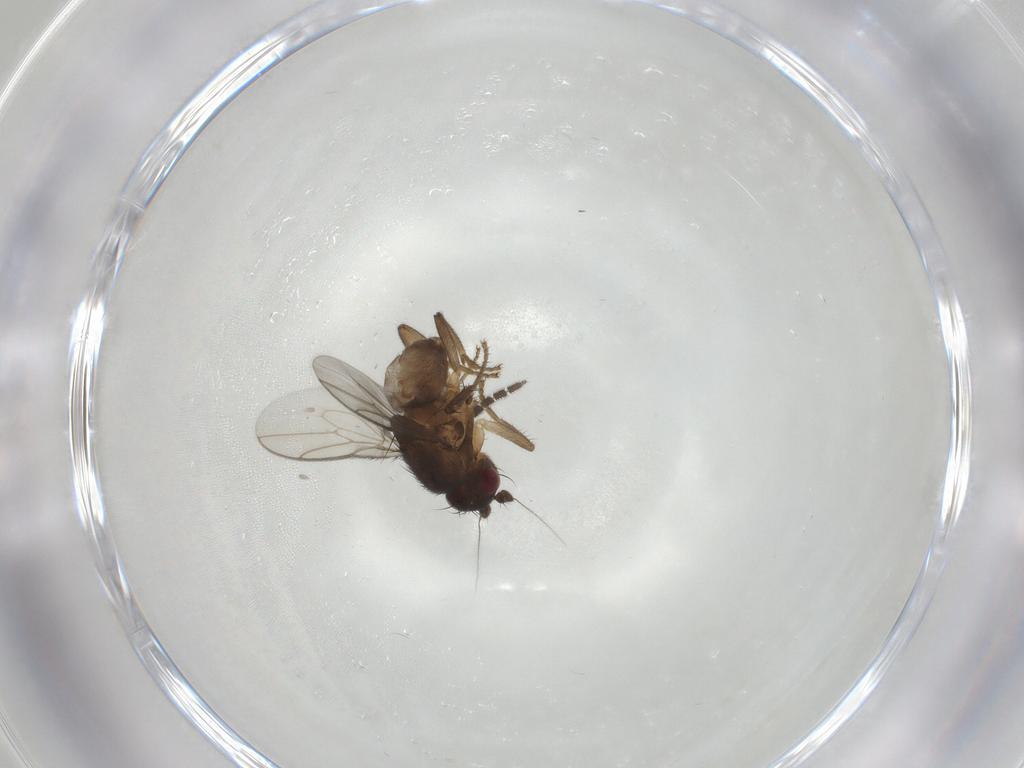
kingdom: Animalia
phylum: Arthropoda
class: Insecta
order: Diptera
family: Sphaeroceridae
